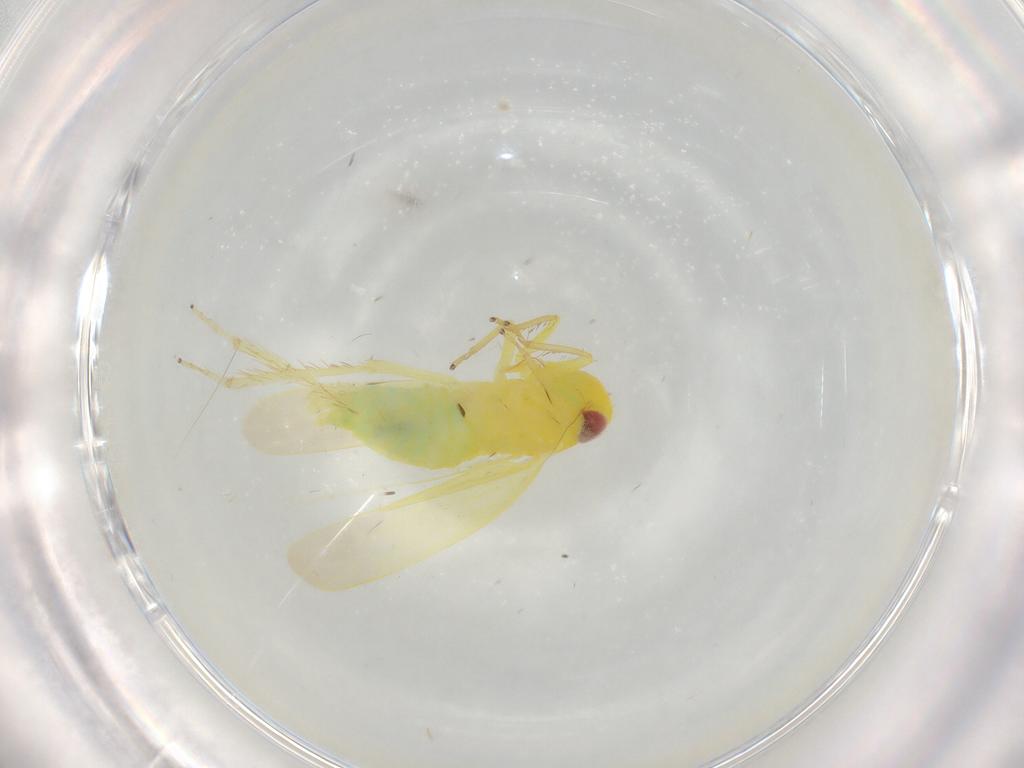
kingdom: Animalia
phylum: Arthropoda
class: Insecta
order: Hemiptera
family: Cicadellidae
